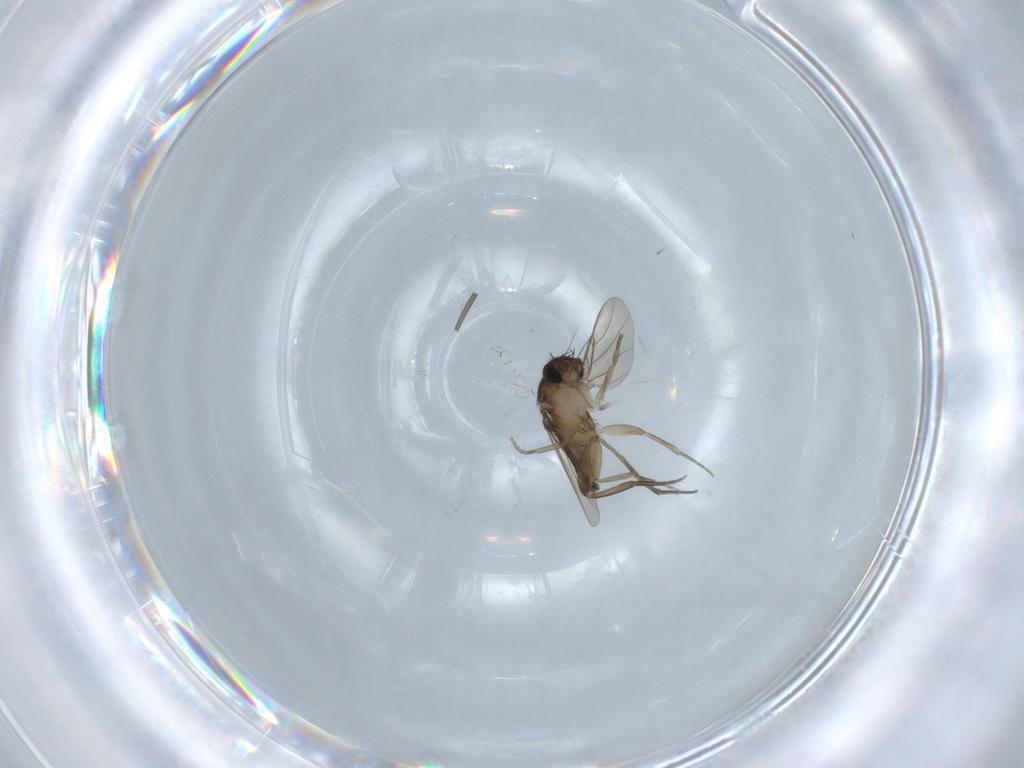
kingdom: Animalia
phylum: Arthropoda
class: Insecta
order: Diptera
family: Phoridae
